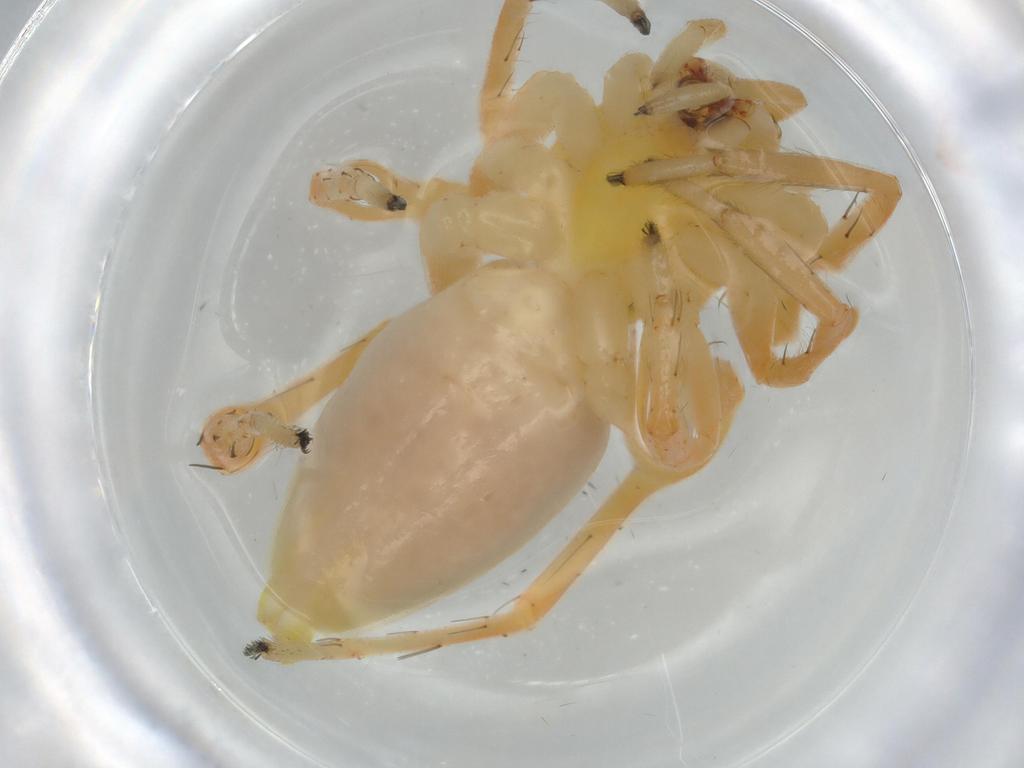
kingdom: Animalia
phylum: Arthropoda
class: Arachnida
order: Araneae
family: Anyphaenidae
